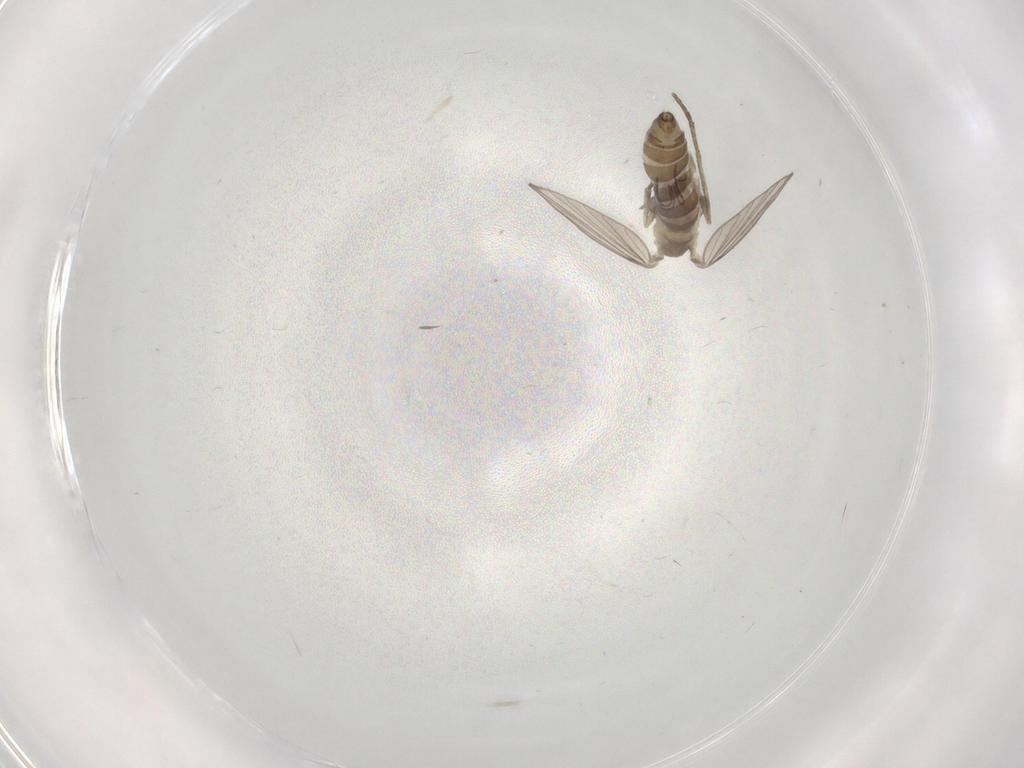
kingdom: Animalia
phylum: Arthropoda
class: Insecta
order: Diptera
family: Psychodidae
